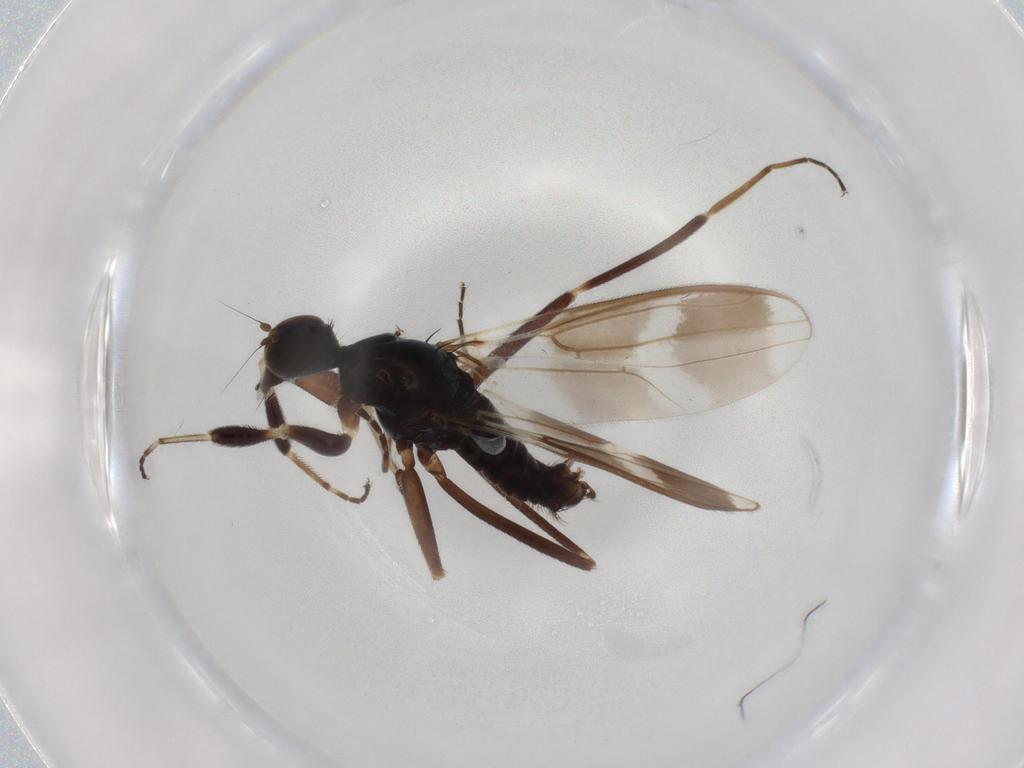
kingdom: Animalia
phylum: Arthropoda
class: Insecta
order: Diptera
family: Hybotidae
